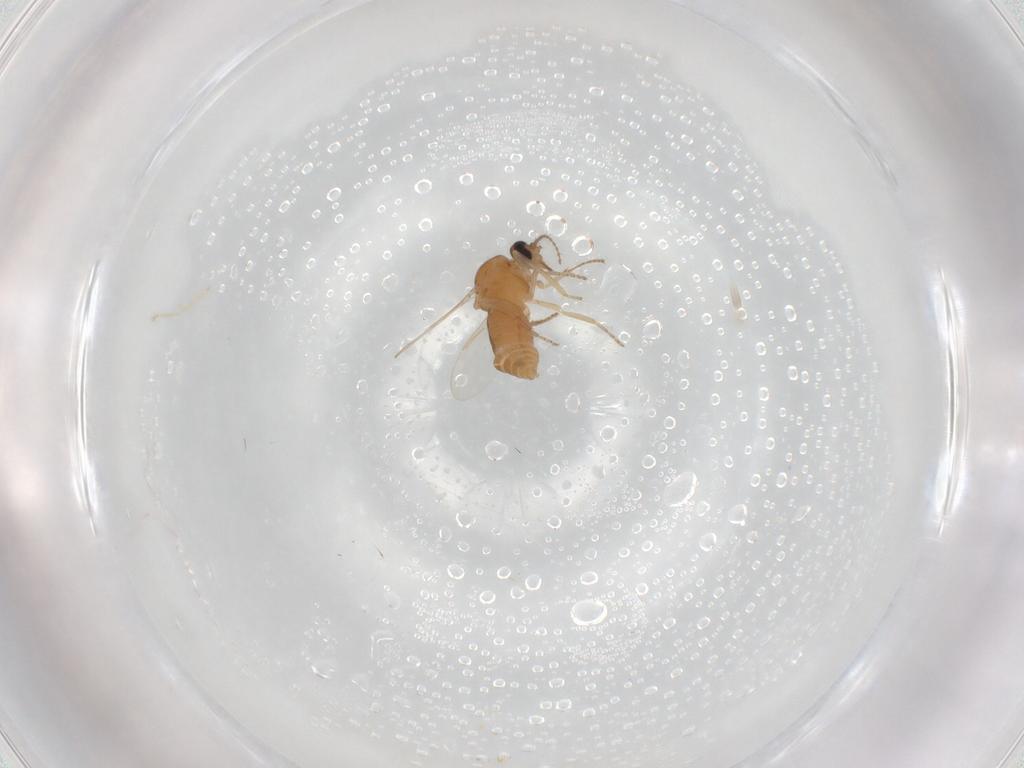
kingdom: Animalia
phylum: Arthropoda
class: Insecta
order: Diptera
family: Ceratopogonidae
